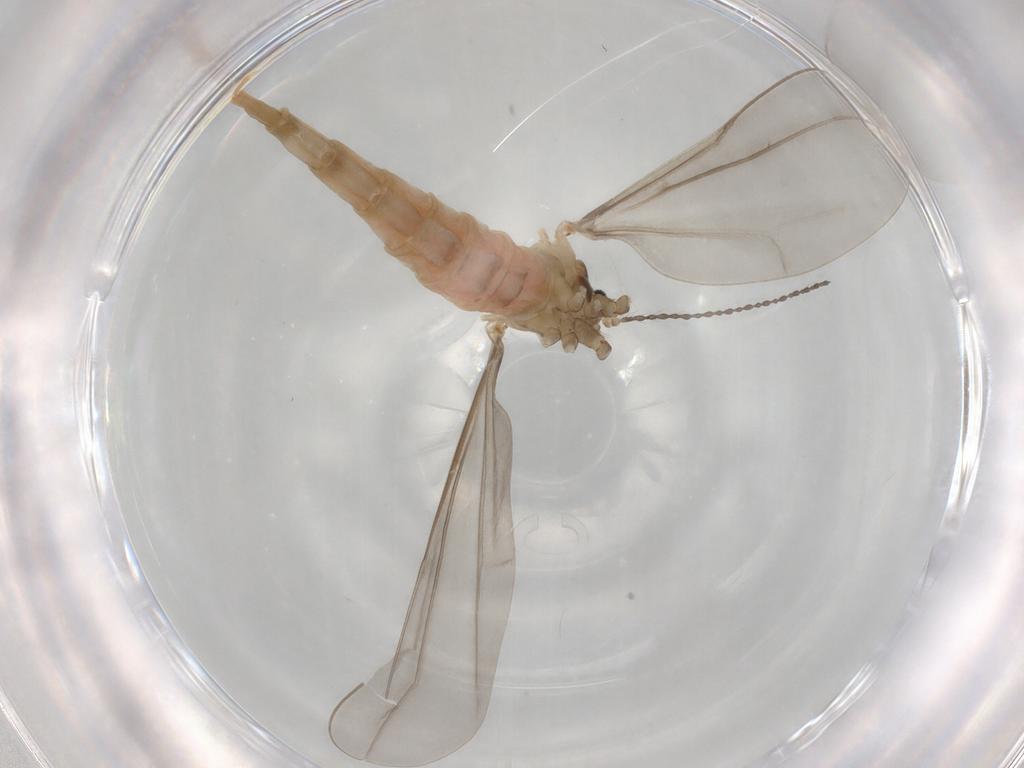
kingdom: Animalia
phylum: Arthropoda
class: Insecta
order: Diptera
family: Cecidomyiidae
